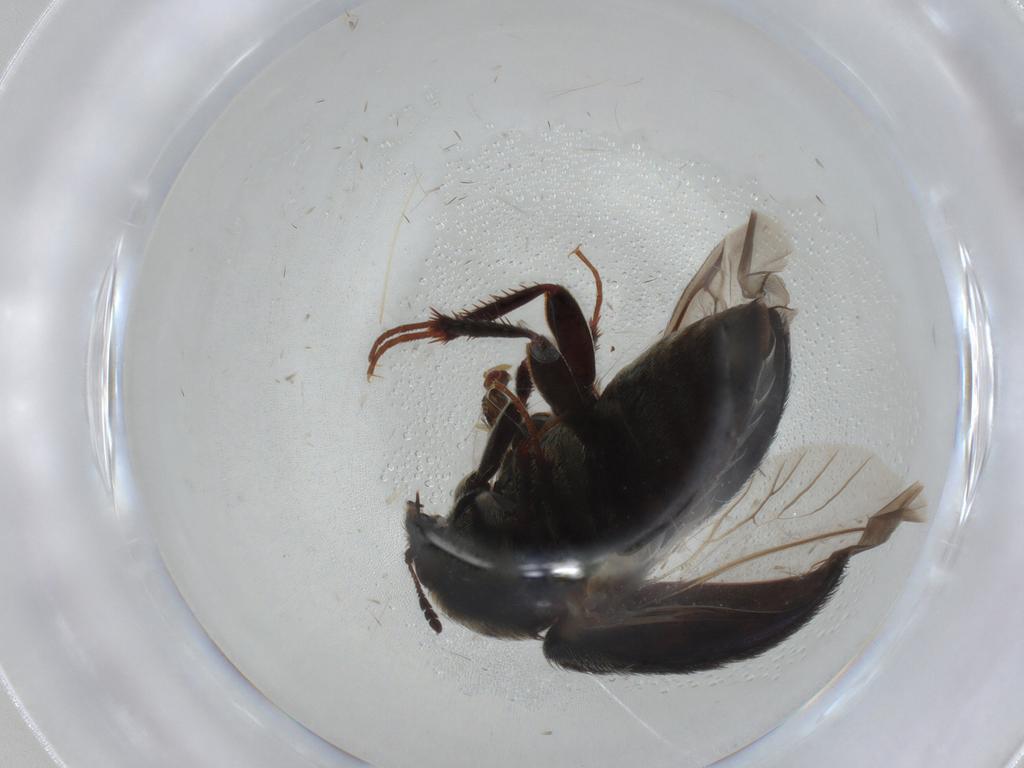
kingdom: Animalia
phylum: Arthropoda
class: Insecta
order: Coleoptera
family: Dermestidae
